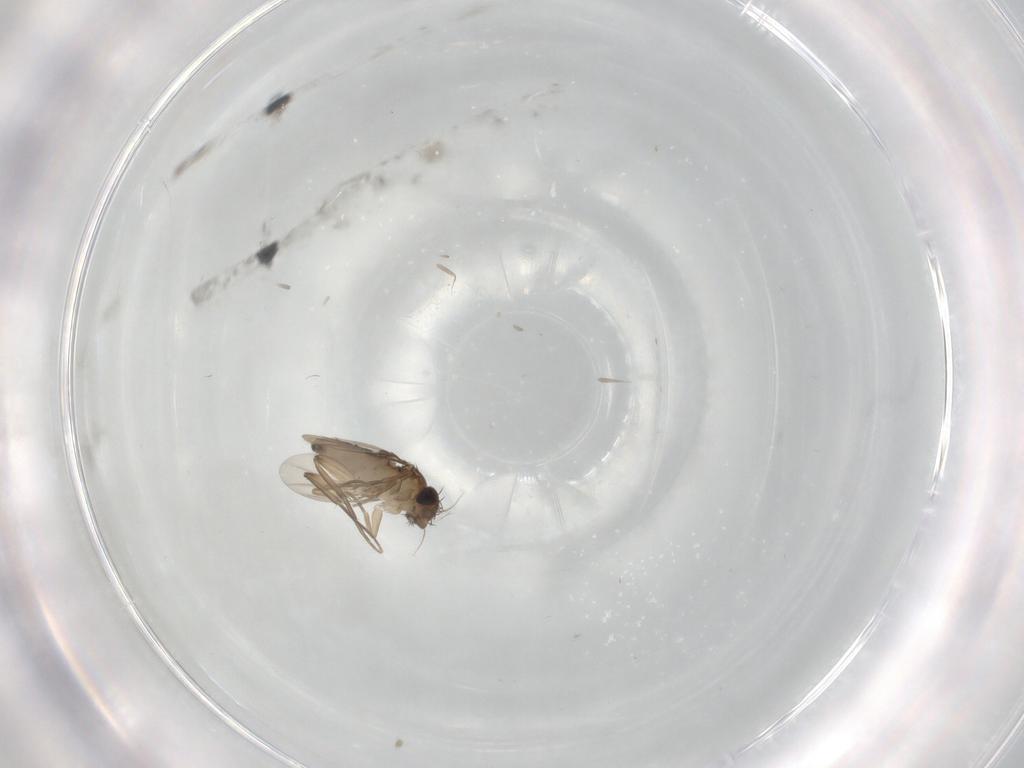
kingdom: Animalia
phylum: Arthropoda
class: Insecta
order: Diptera
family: Phoridae
